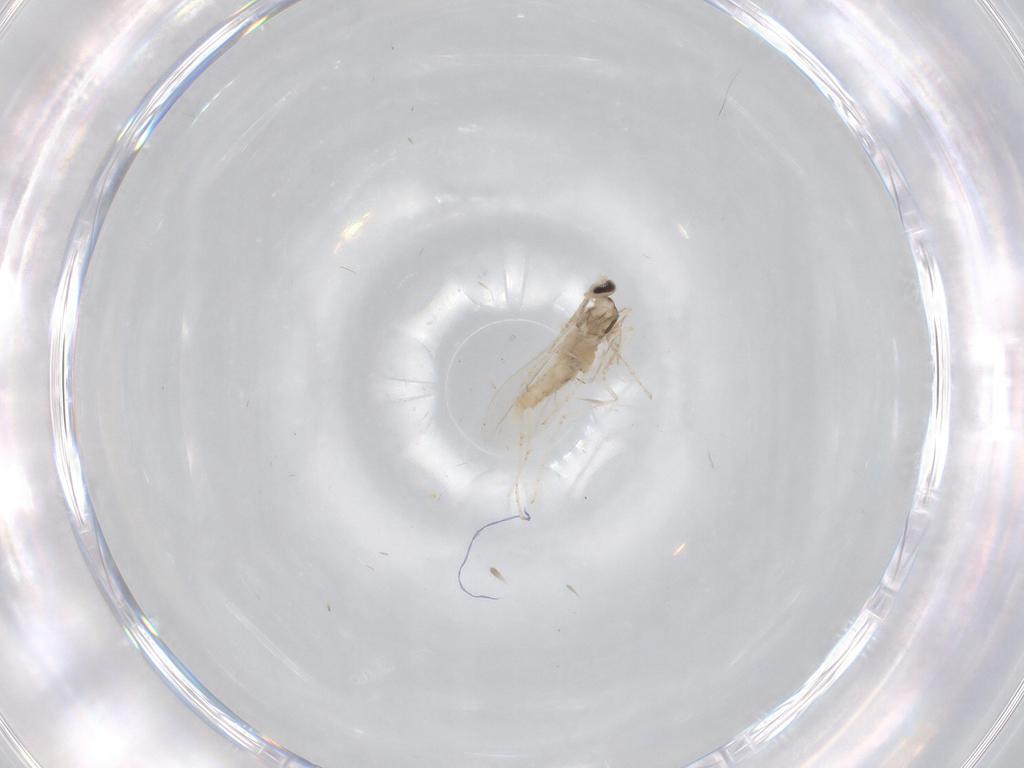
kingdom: Animalia
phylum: Arthropoda
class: Insecta
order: Diptera
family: Cecidomyiidae
